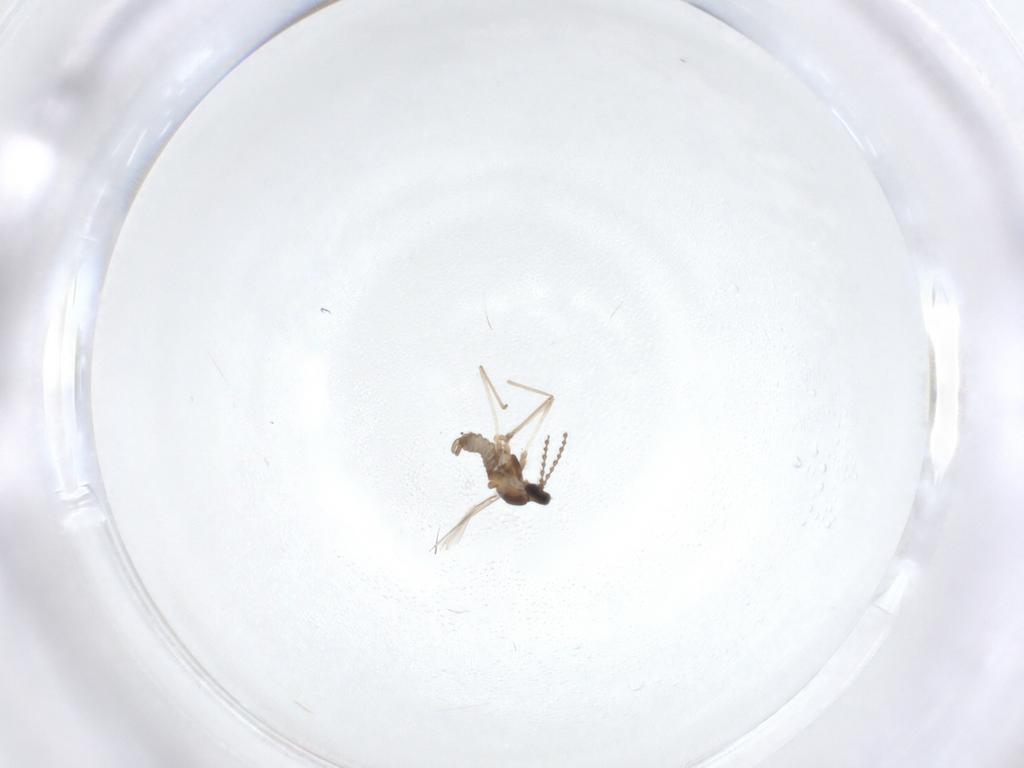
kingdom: Animalia
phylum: Arthropoda
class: Insecta
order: Diptera
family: Cecidomyiidae
